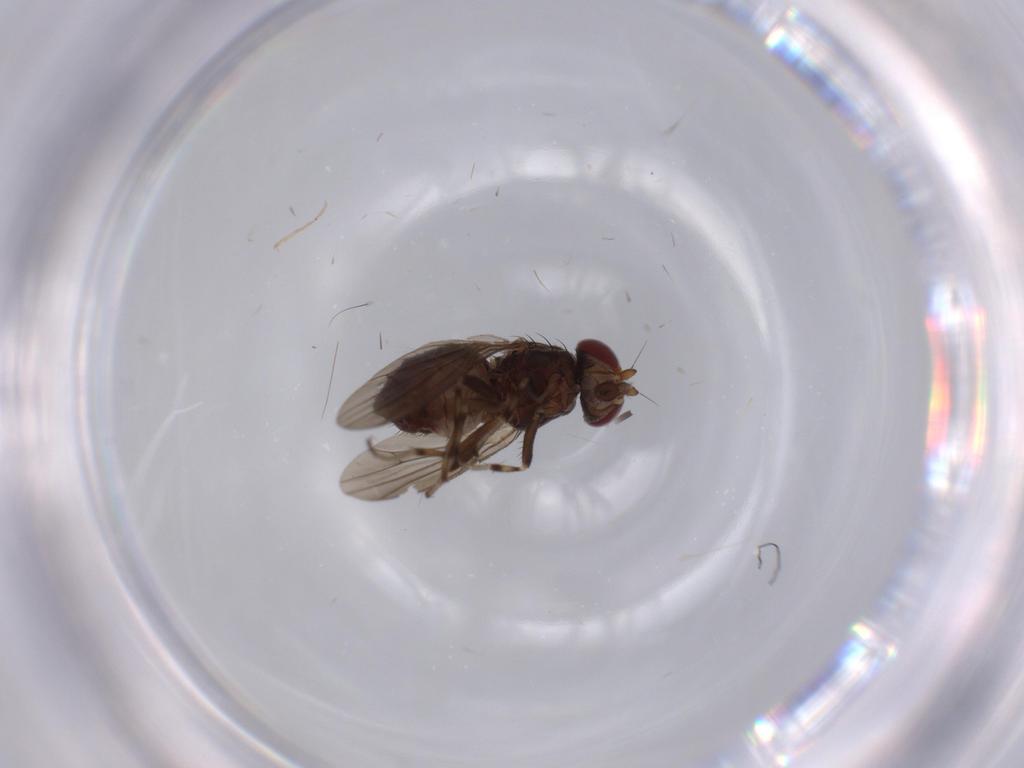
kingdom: Animalia
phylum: Arthropoda
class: Insecta
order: Diptera
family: Heleomyzidae
